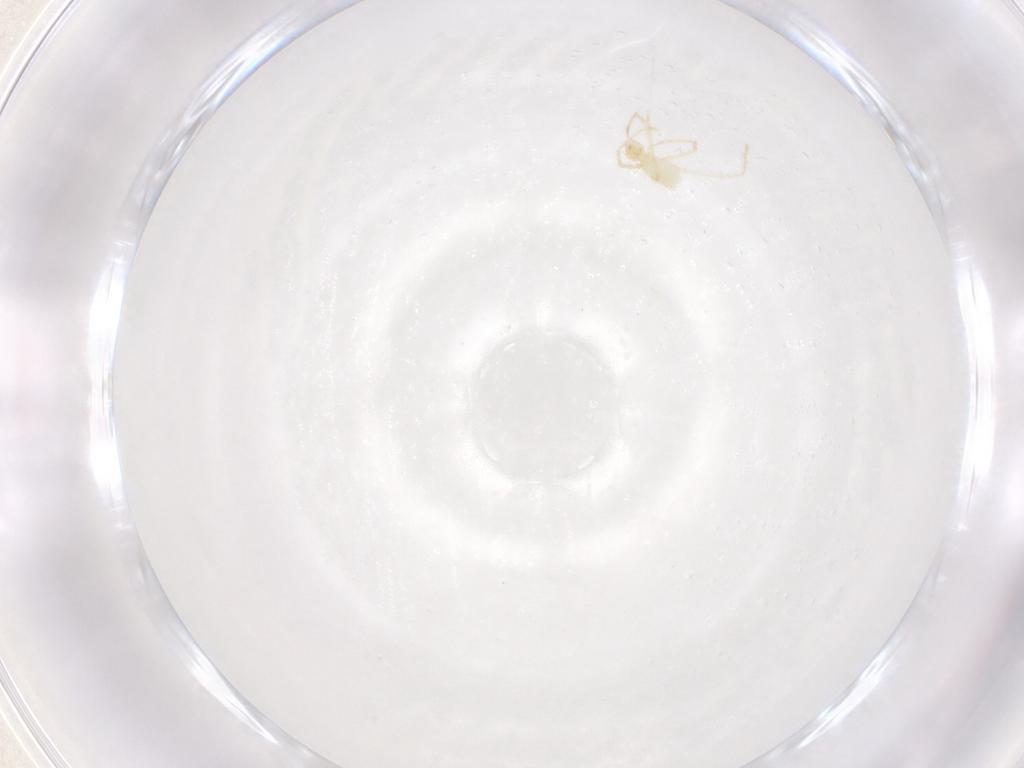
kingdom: Animalia
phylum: Arthropoda
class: Arachnida
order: Trombidiformes
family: Erythraeidae
